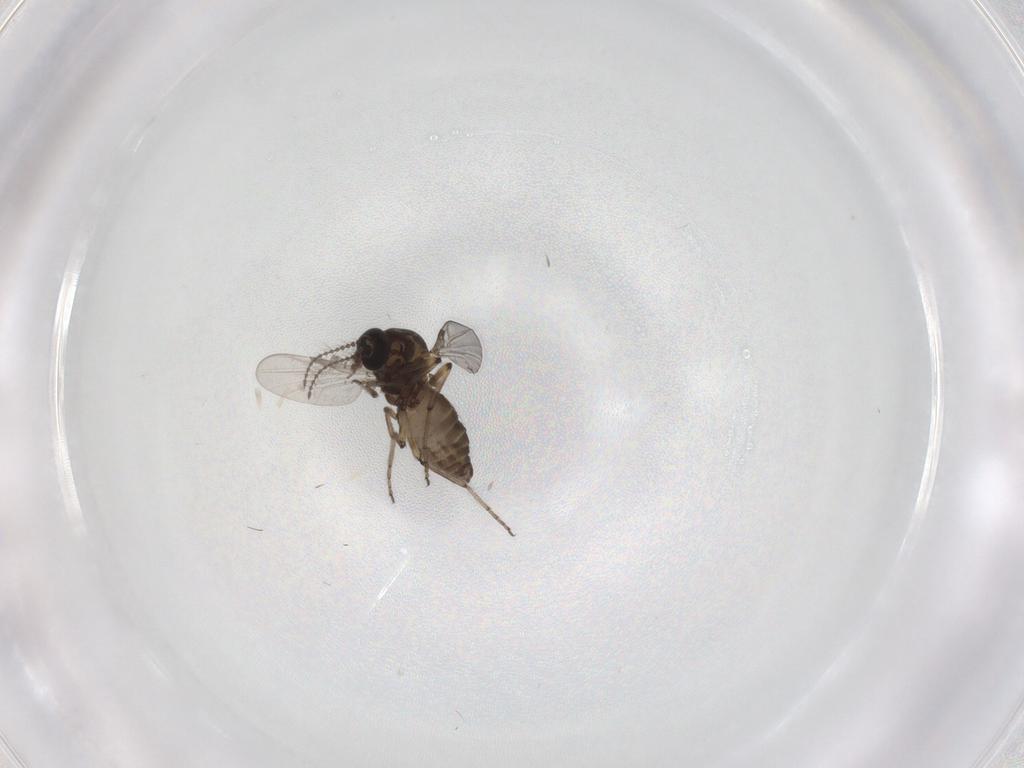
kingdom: Animalia
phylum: Arthropoda
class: Insecta
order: Diptera
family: Ceratopogonidae
